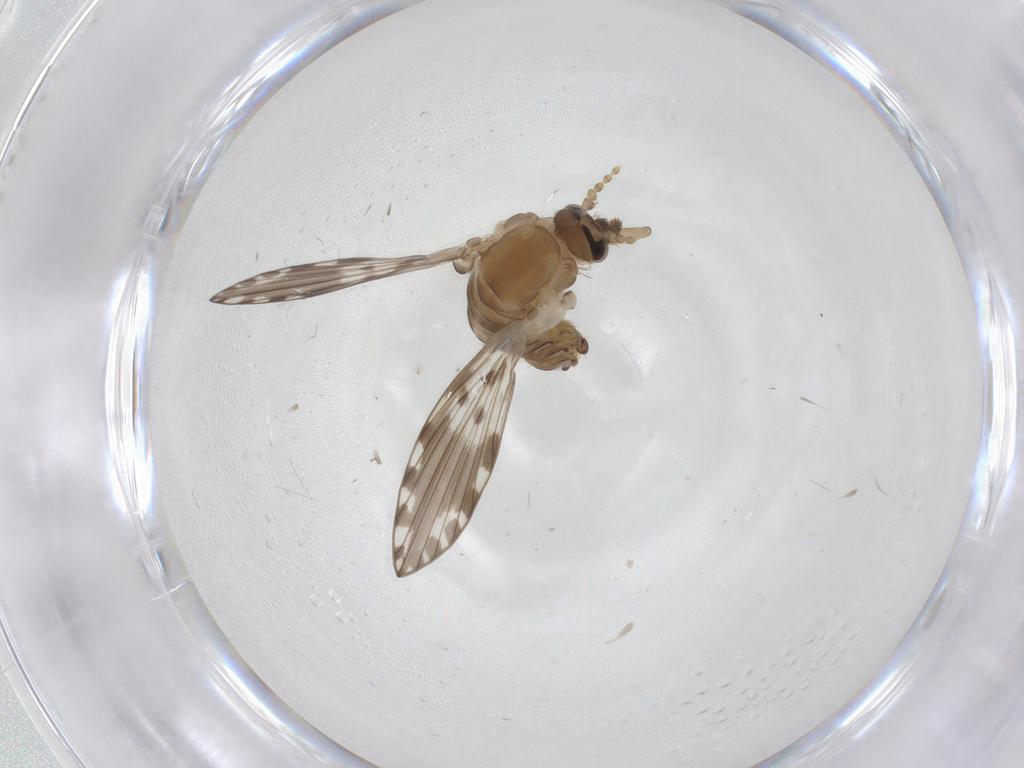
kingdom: Animalia
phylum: Arthropoda
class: Insecta
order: Diptera
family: Psychodidae
